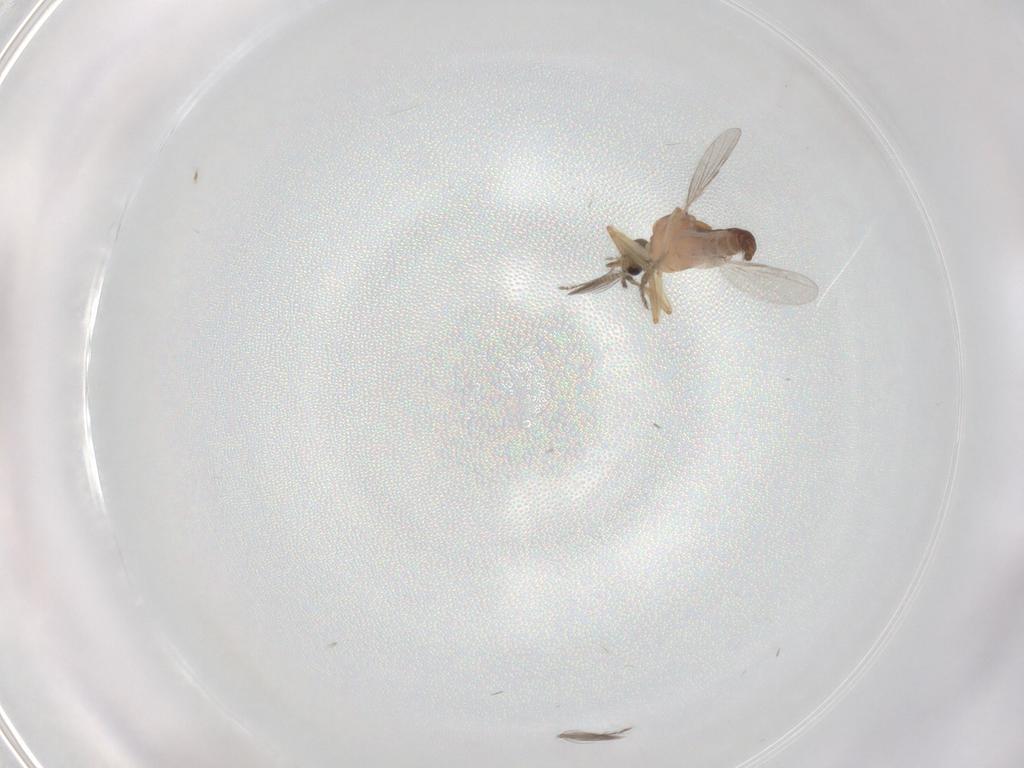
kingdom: Animalia
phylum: Arthropoda
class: Insecta
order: Diptera
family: Ceratopogonidae
